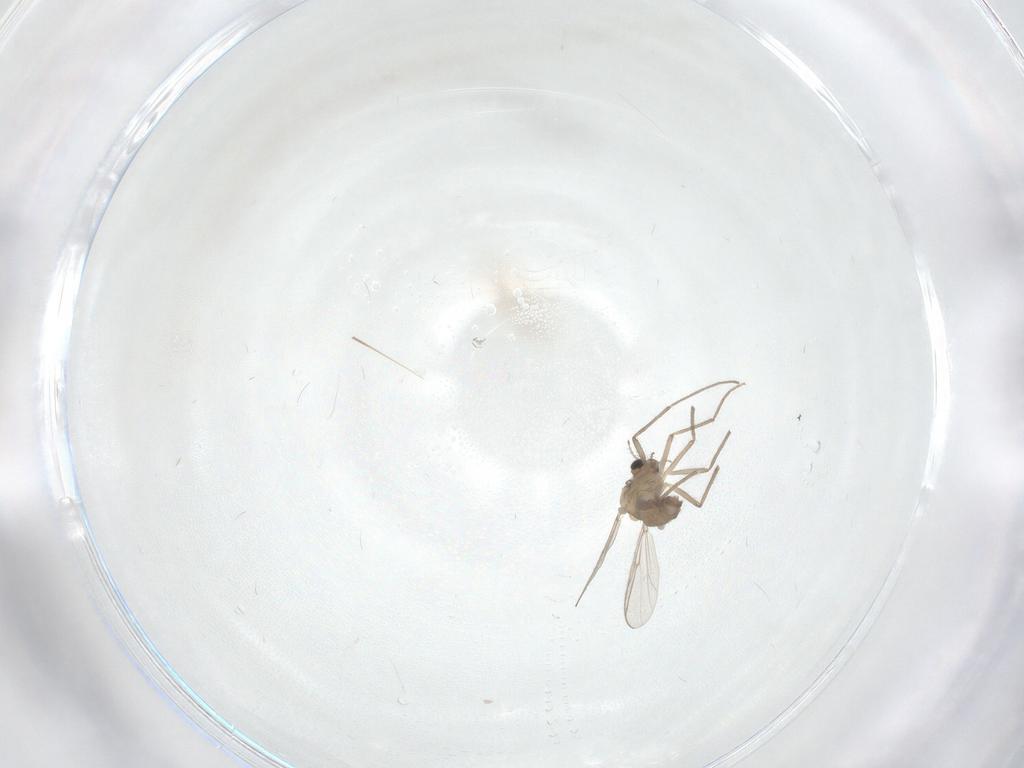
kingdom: Animalia
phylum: Arthropoda
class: Insecta
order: Diptera
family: Chironomidae
